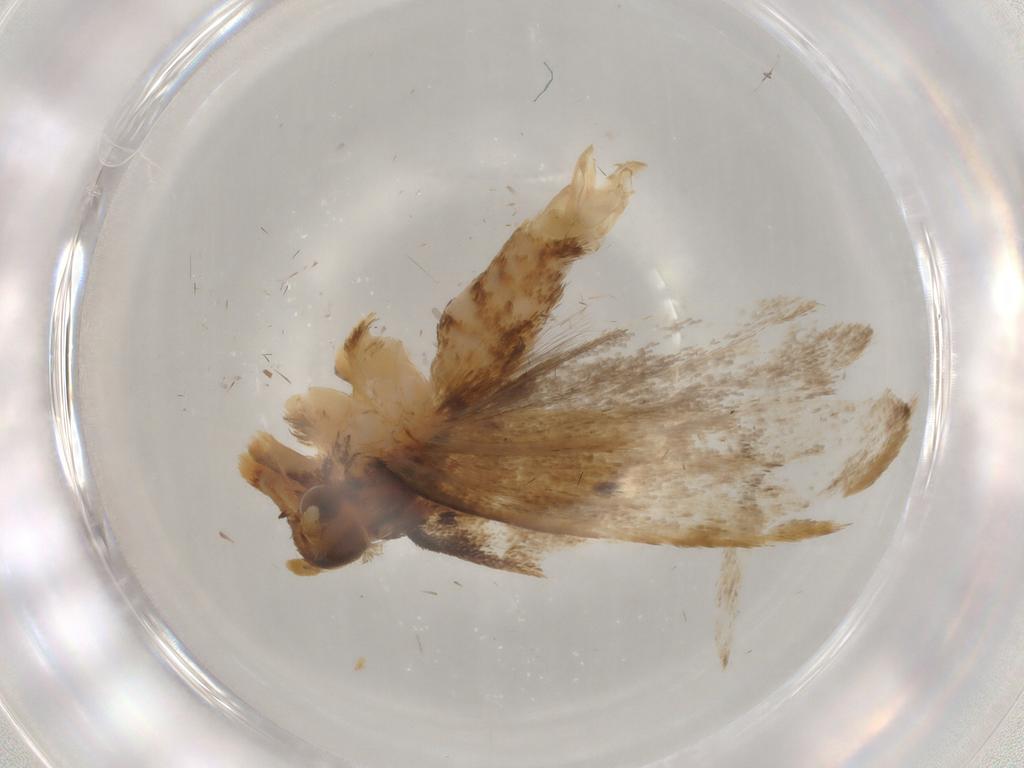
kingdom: Animalia
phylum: Arthropoda
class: Insecta
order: Lepidoptera
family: Lecithoceridae
